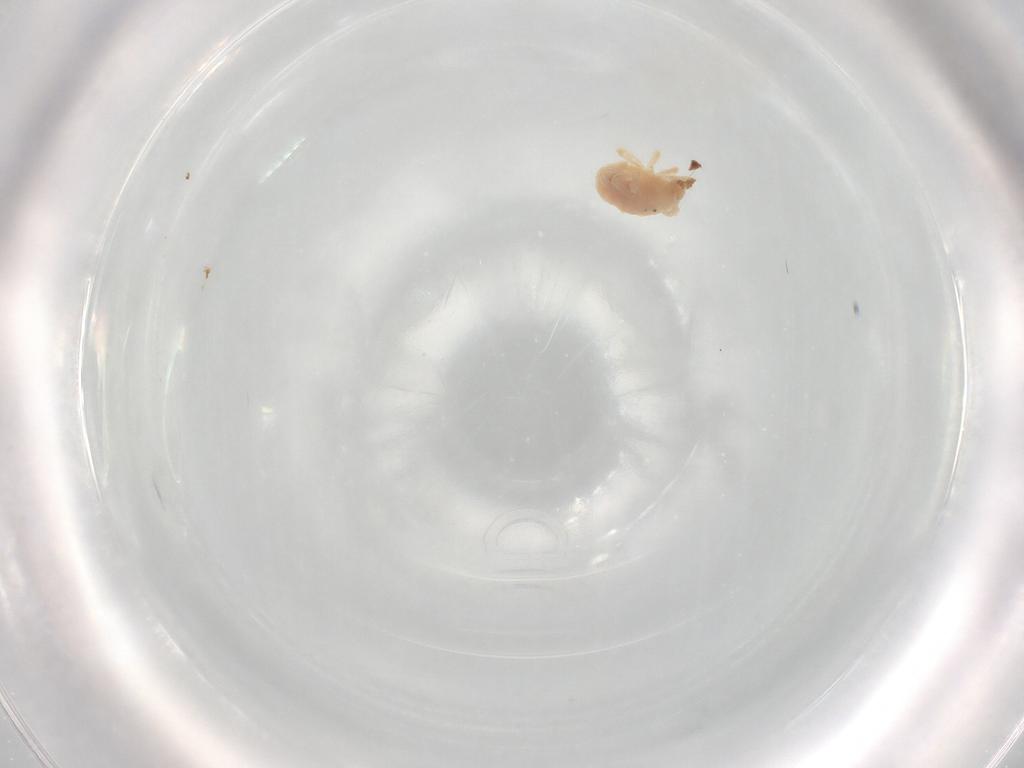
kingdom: Animalia
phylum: Arthropoda
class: Arachnida
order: Trombidiformes
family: Bdellidae
